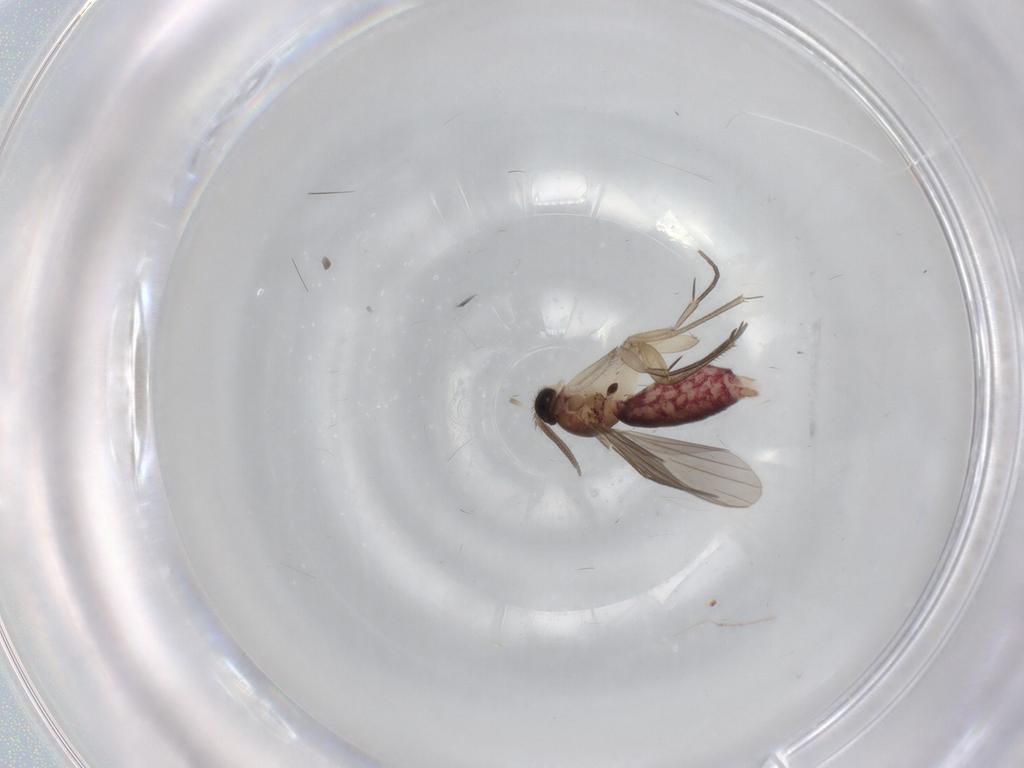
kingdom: Animalia
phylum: Arthropoda
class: Insecta
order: Diptera
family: Mycetophilidae
